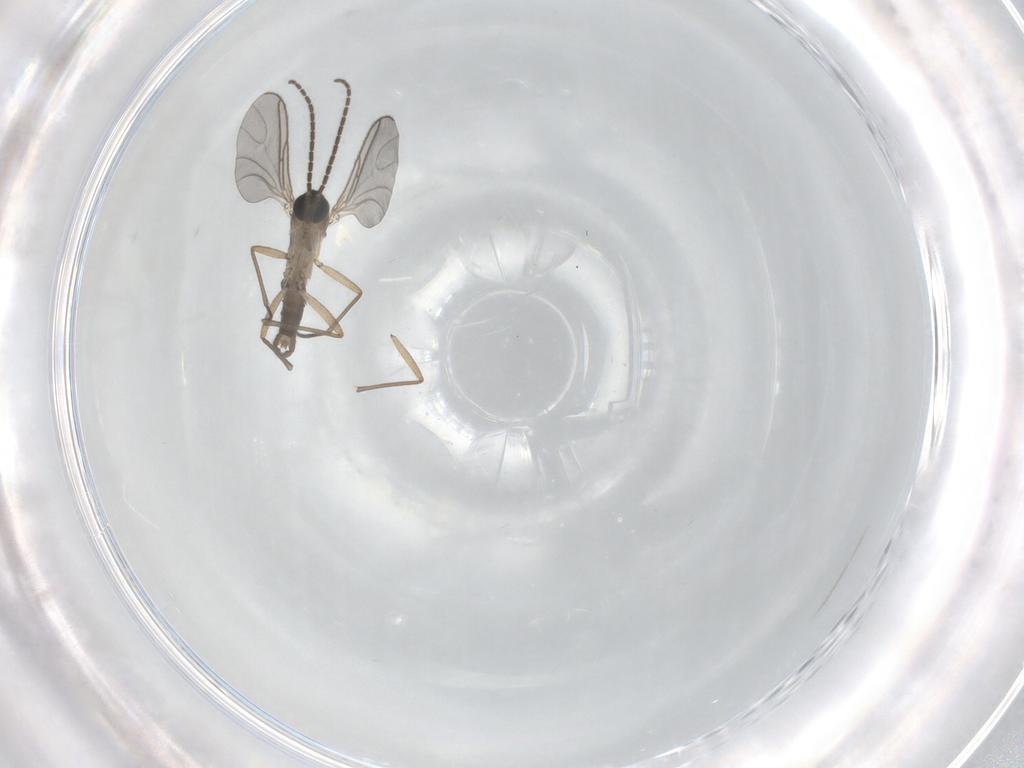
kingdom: Animalia
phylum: Arthropoda
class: Insecta
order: Diptera
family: Sciaridae
